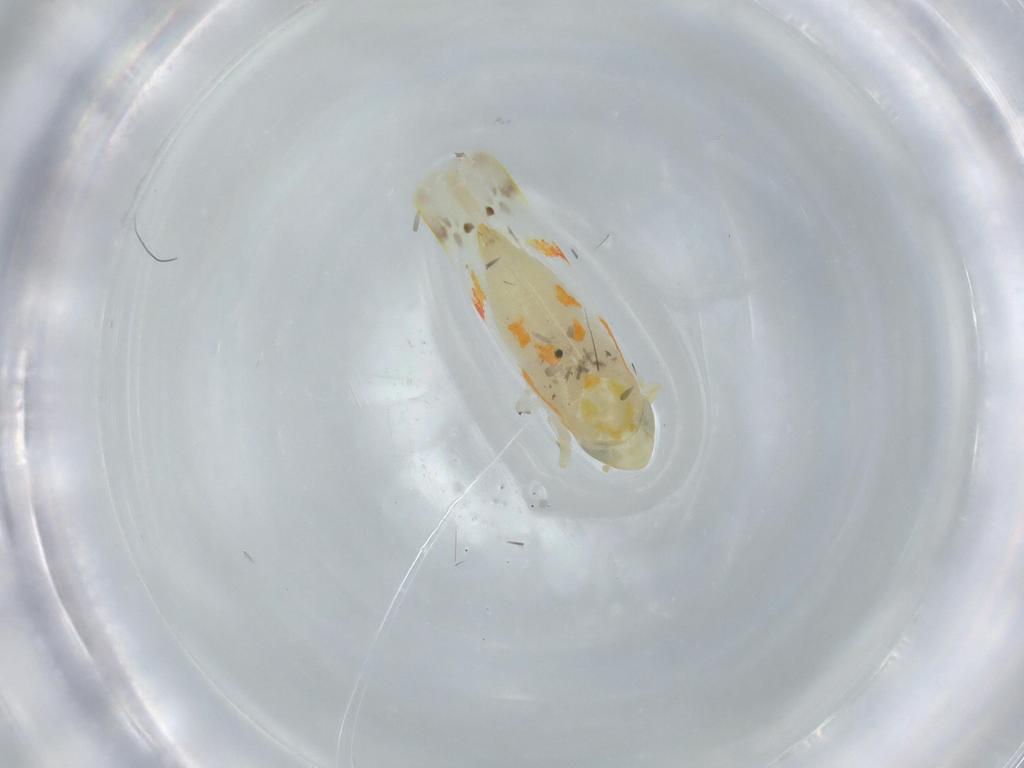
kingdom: Animalia
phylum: Arthropoda
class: Insecta
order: Hemiptera
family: Cicadellidae
